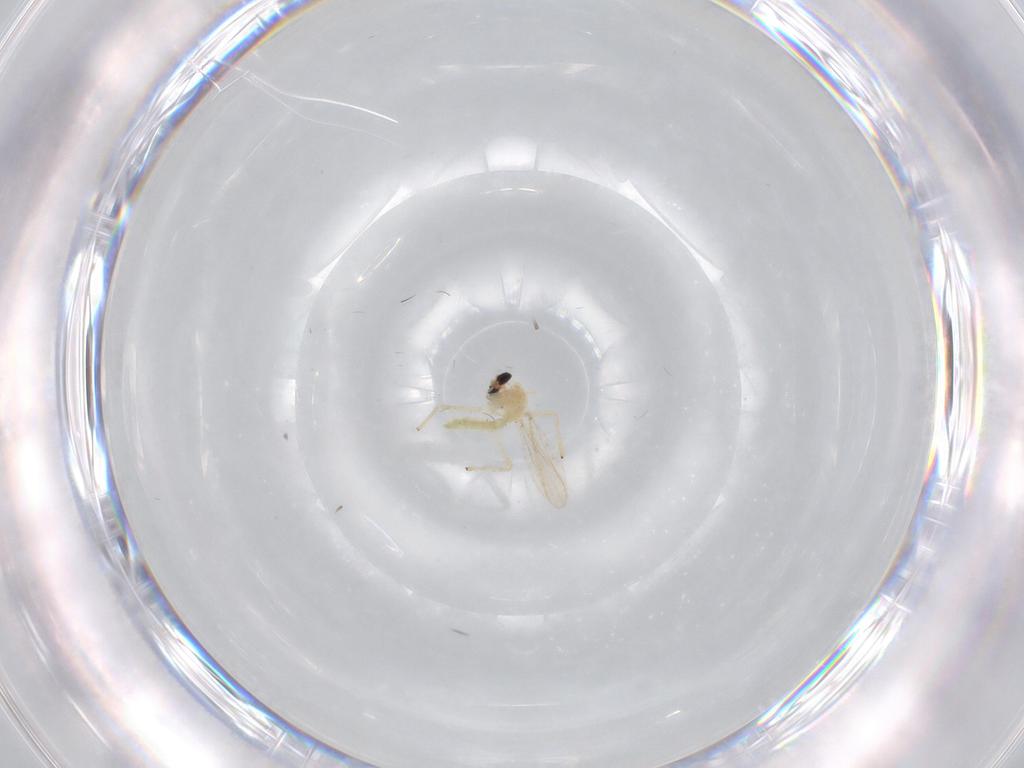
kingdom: Animalia
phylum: Arthropoda
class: Insecta
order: Diptera
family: Chironomidae
